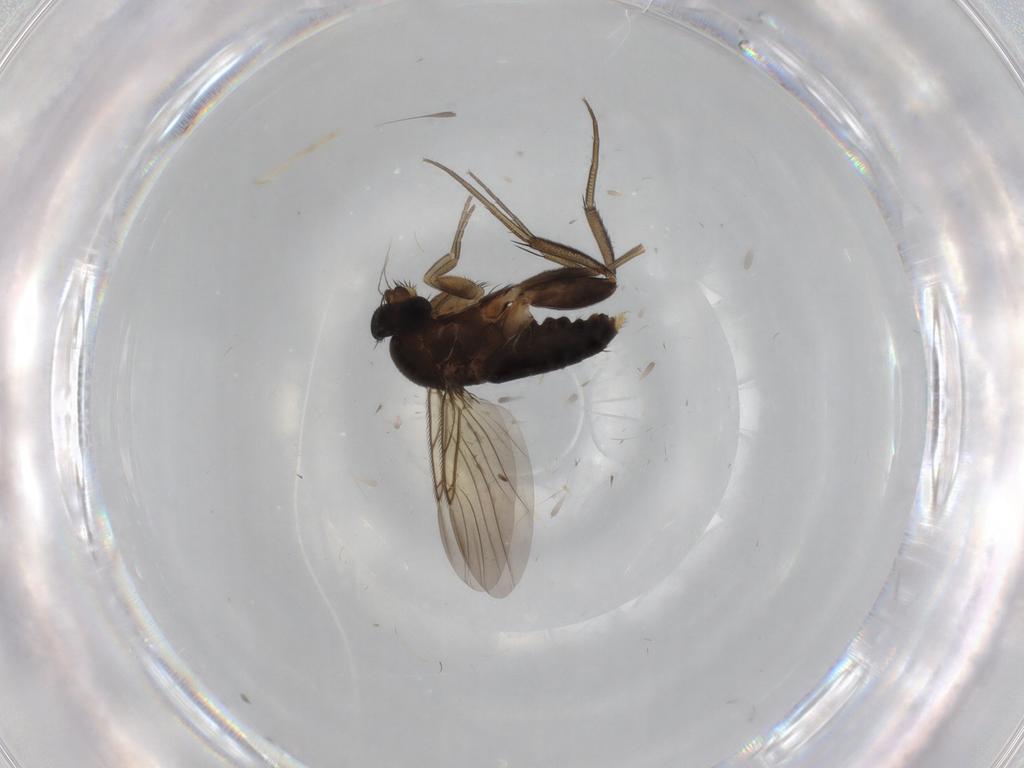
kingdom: Animalia
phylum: Arthropoda
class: Insecta
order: Diptera
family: Phoridae
